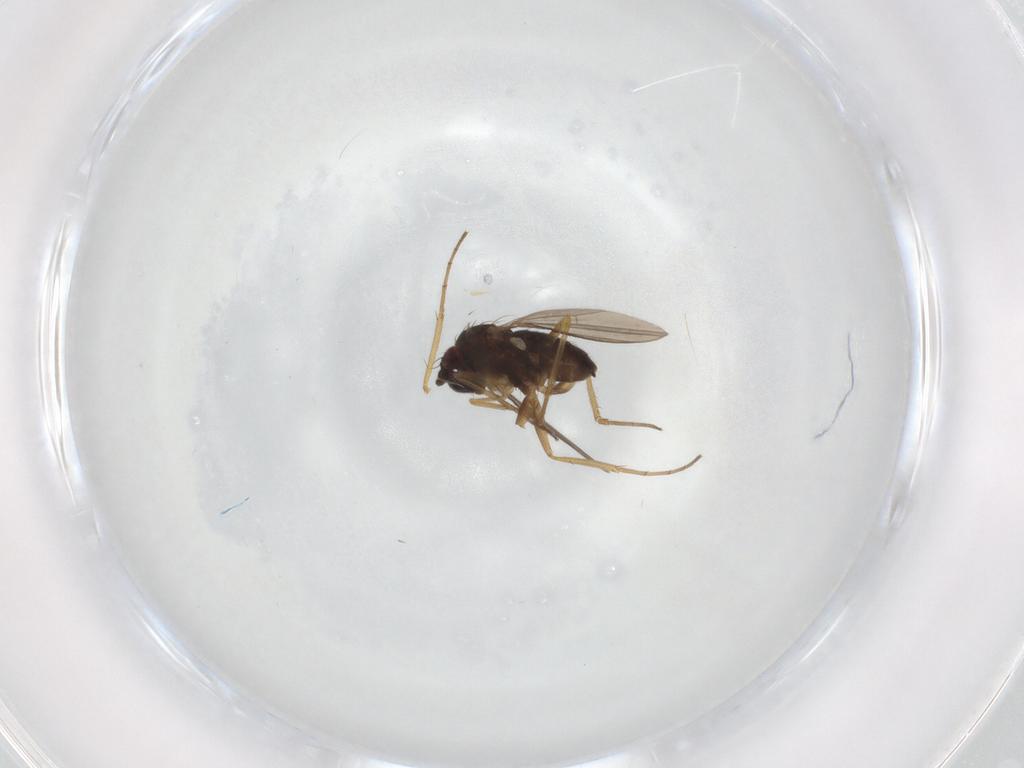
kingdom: Animalia
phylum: Arthropoda
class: Insecta
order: Diptera
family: Dolichopodidae
